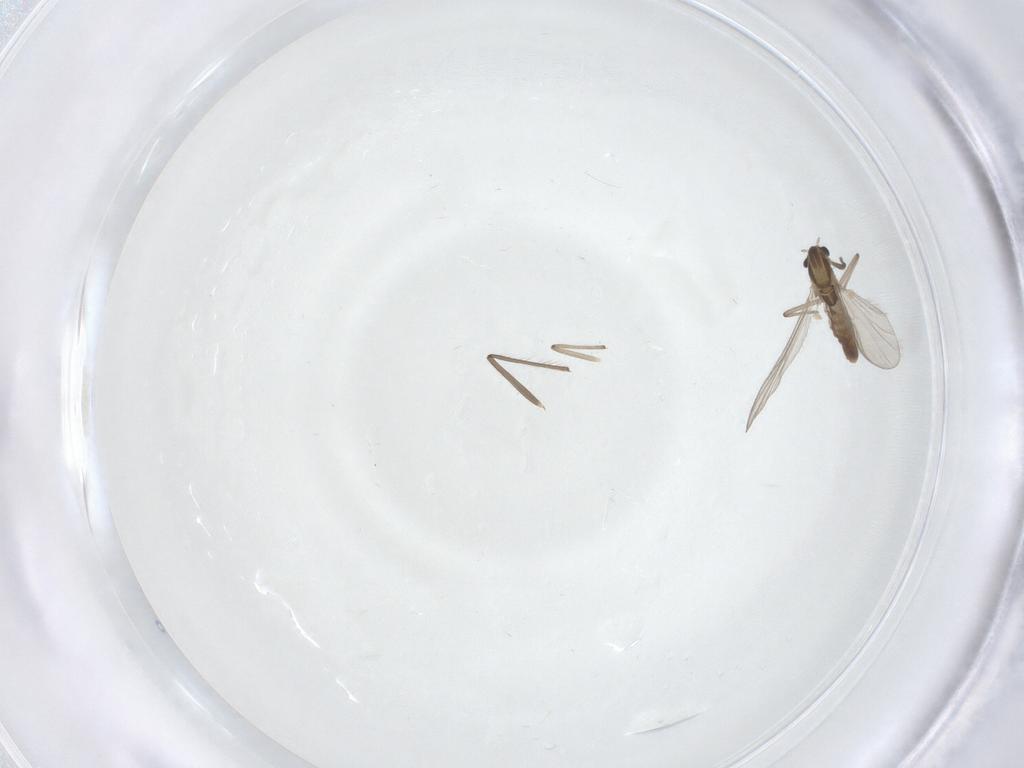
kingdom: Animalia
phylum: Arthropoda
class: Insecta
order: Diptera
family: Chironomidae
